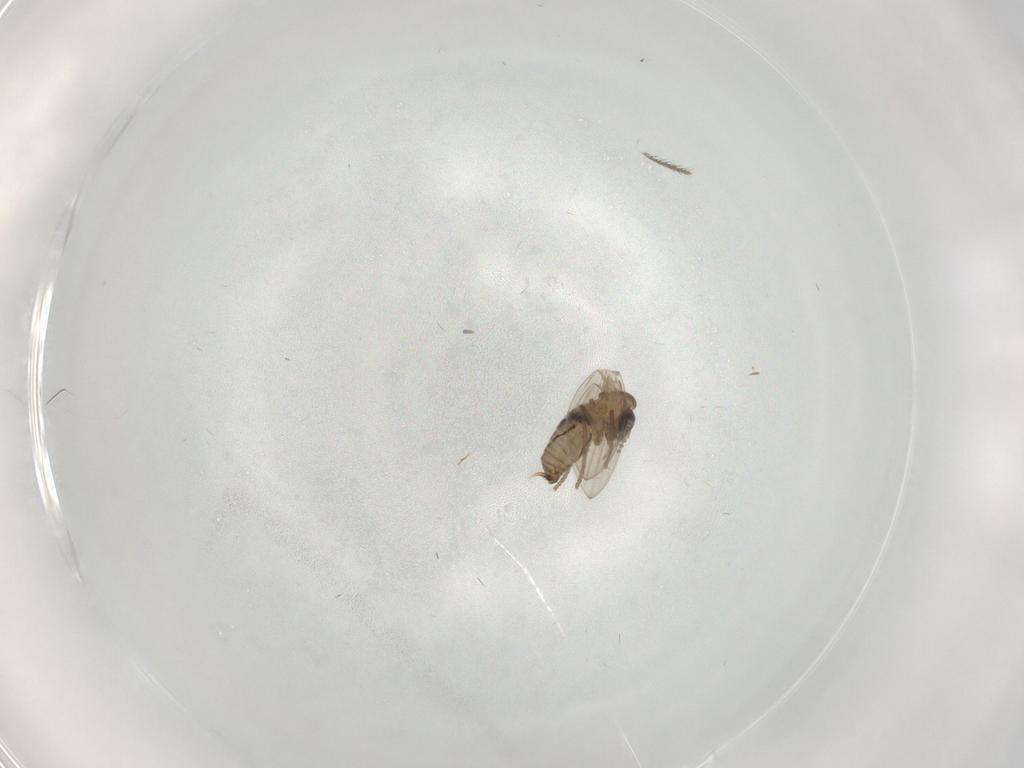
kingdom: Animalia
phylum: Arthropoda
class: Insecta
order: Diptera
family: Psychodidae
